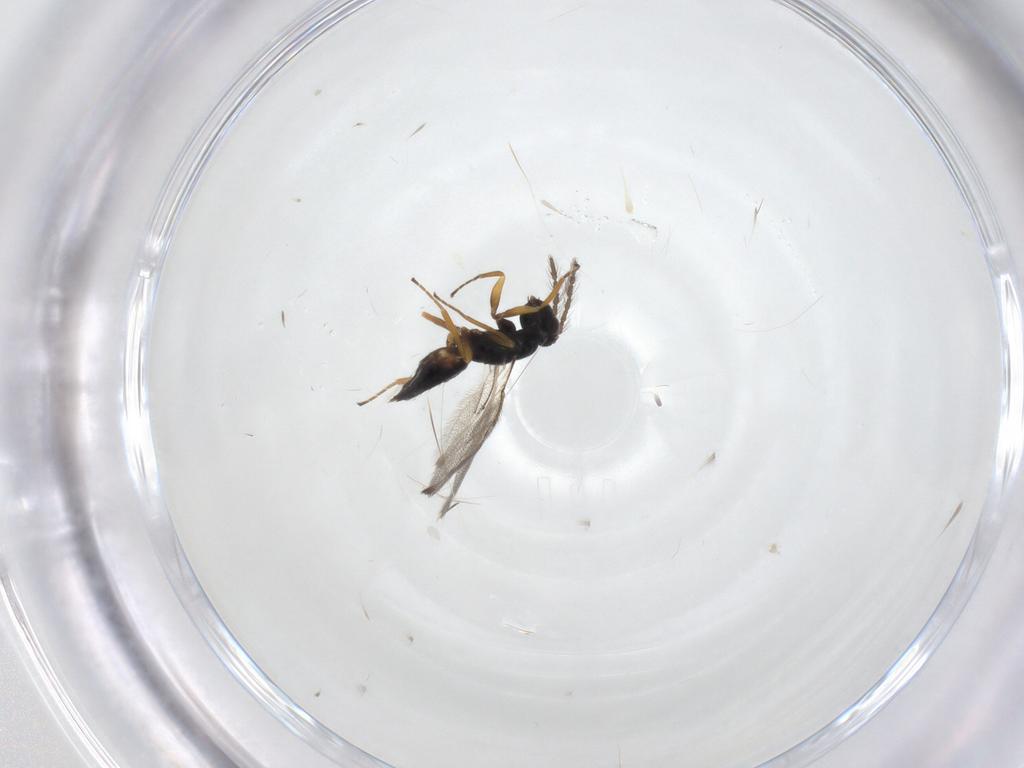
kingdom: Animalia
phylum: Arthropoda
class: Insecta
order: Hymenoptera
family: Eulophidae
